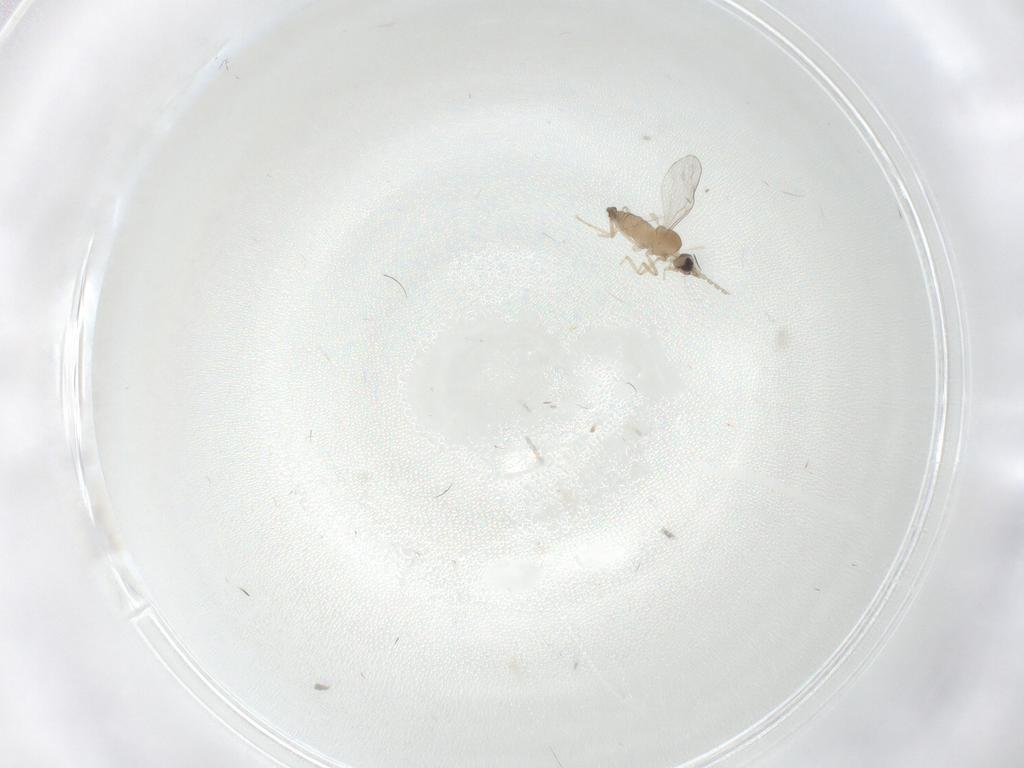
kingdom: Animalia
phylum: Arthropoda
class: Insecta
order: Diptera
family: Cecidomyiidae
